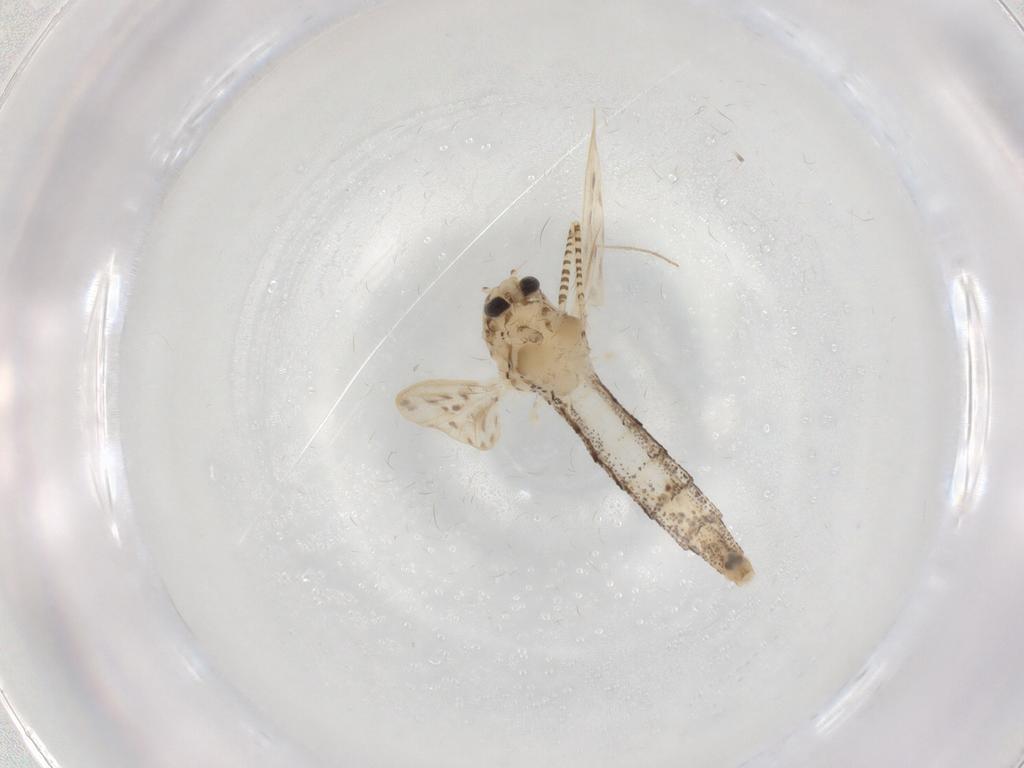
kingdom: Animalia
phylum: Arthropoda
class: Insecta
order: Diptera
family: Chaoboridae
